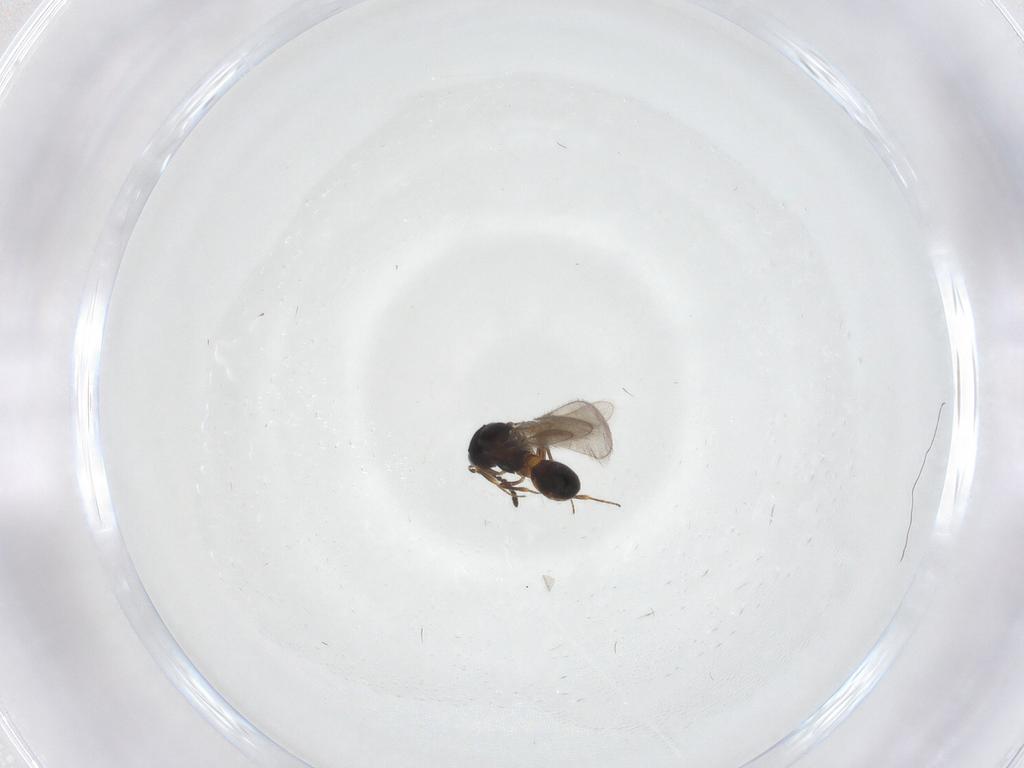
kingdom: Animalia
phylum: Arthropoda
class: Insecta
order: Hymenoptera
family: Scelionidae
